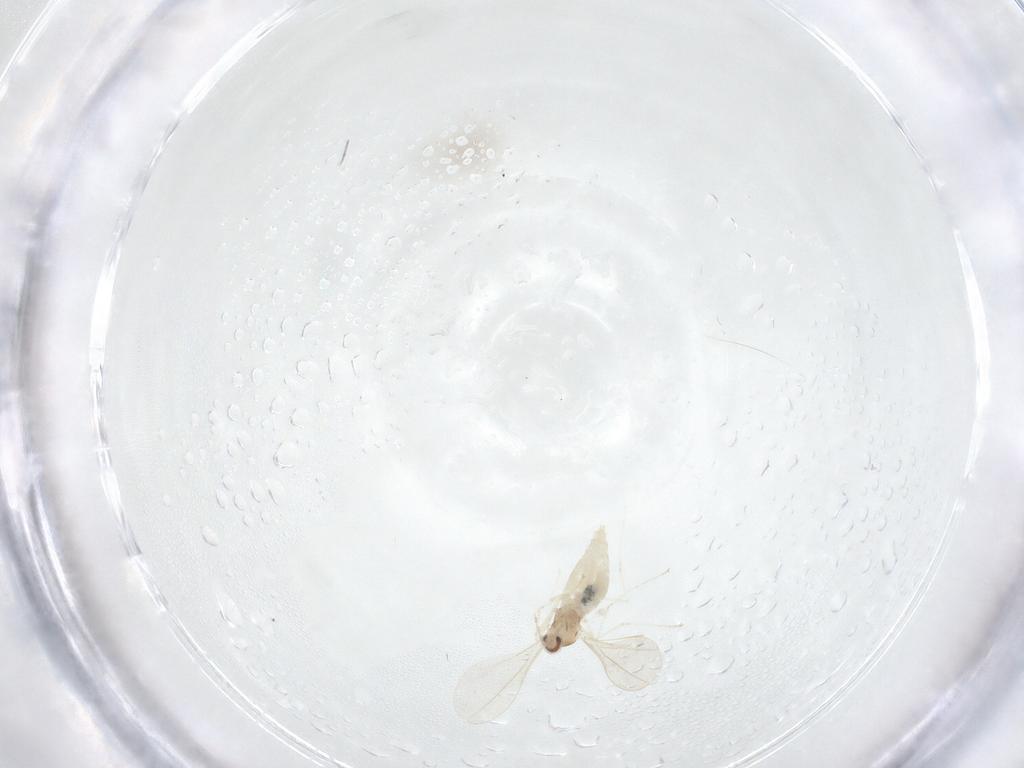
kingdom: Animalia
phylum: Arthropoda
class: Insecta
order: Diptera
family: Cecidomyiidae
